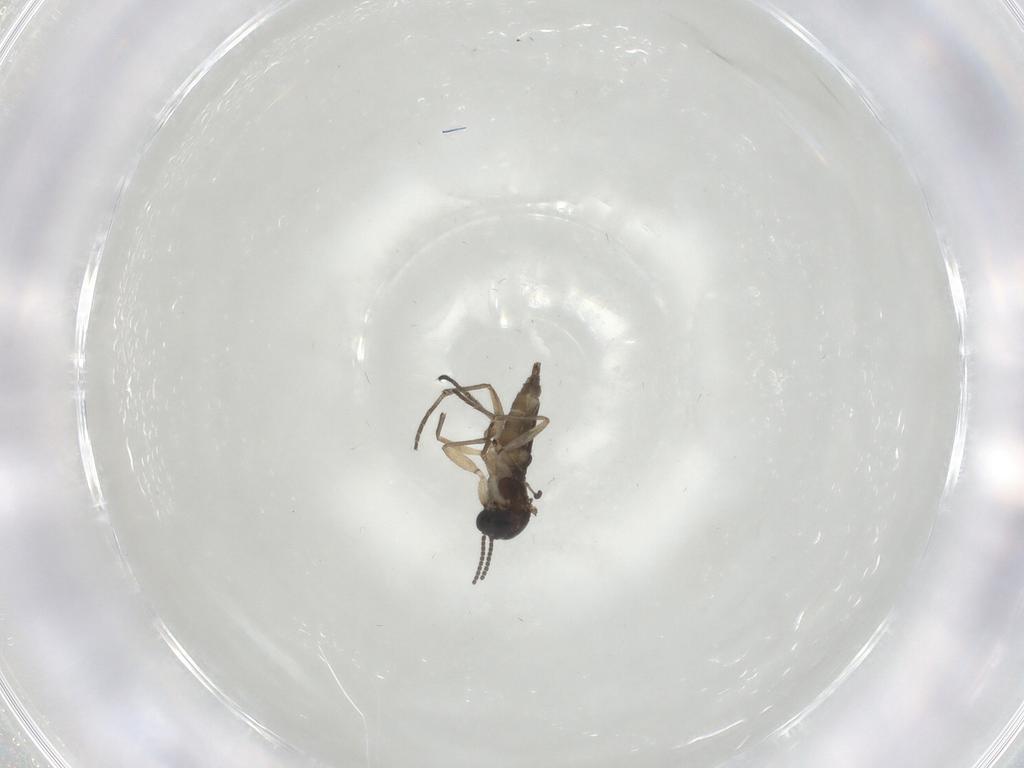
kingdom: Animalia
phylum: Arthropoda
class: Insecta
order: Diptera
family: Sciaridae
